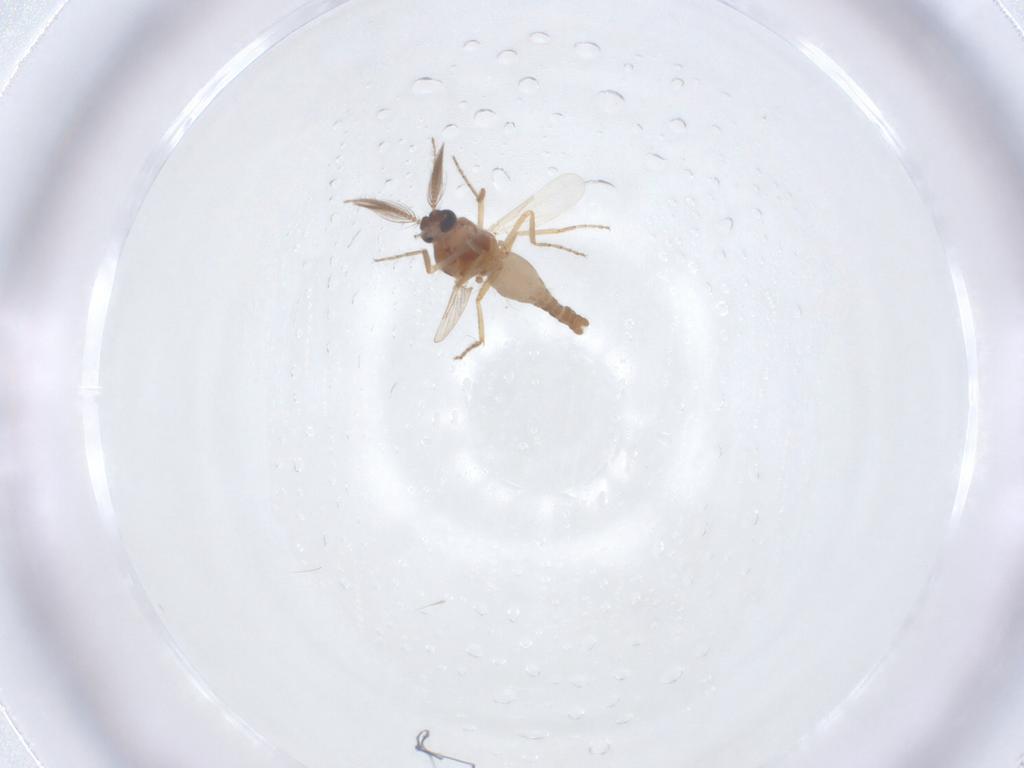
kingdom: Animalia
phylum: Arthropoda
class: Insecta
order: Diptera
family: Ceratopogonidae
